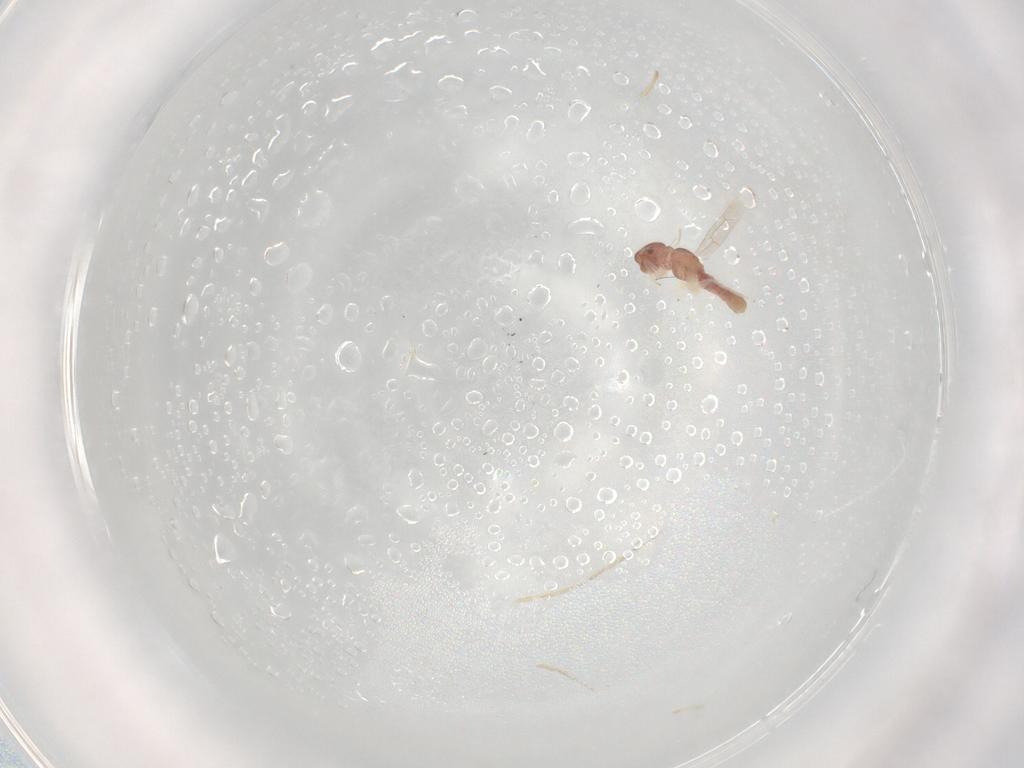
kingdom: Animalia
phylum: Arthropoda
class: Insecta
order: Psocodea
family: Archipsocidae
